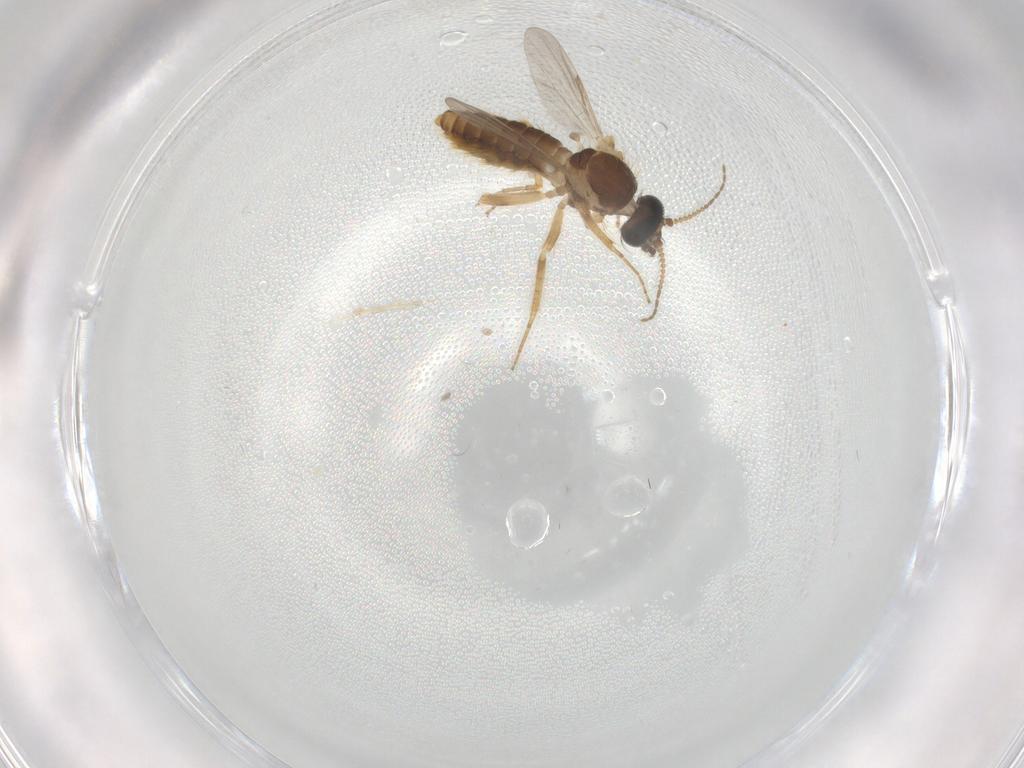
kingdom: Animalia
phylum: Arthropoda
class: Insecta
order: Diptera
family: Ceratopogonidae
